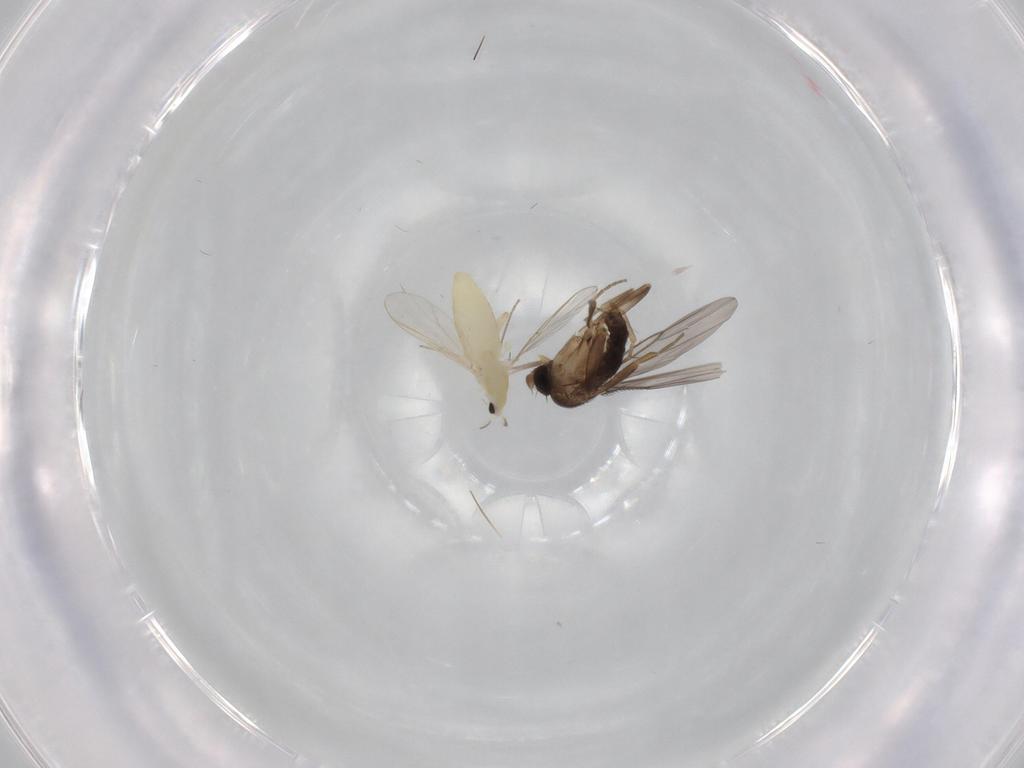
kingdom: Animalia
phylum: Arthropoda
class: Insecta
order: Diptera
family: Chironomidae
